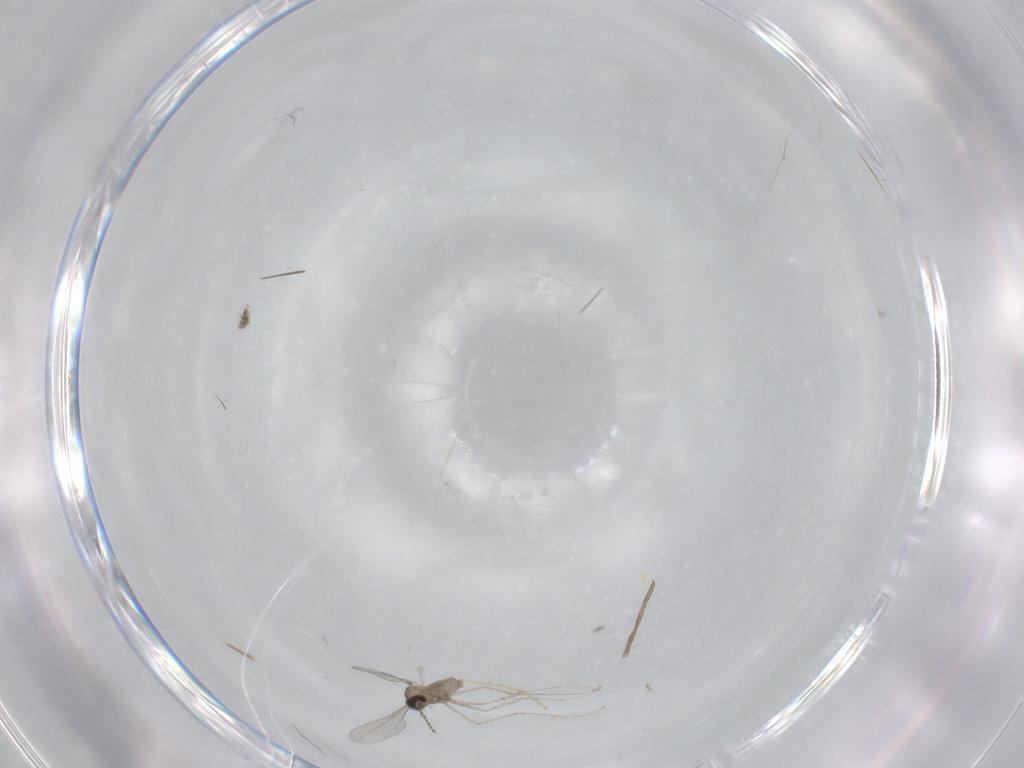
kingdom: Animalia
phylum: Arthropoda
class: Insecta
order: Diptera
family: Cecidomyiidae
